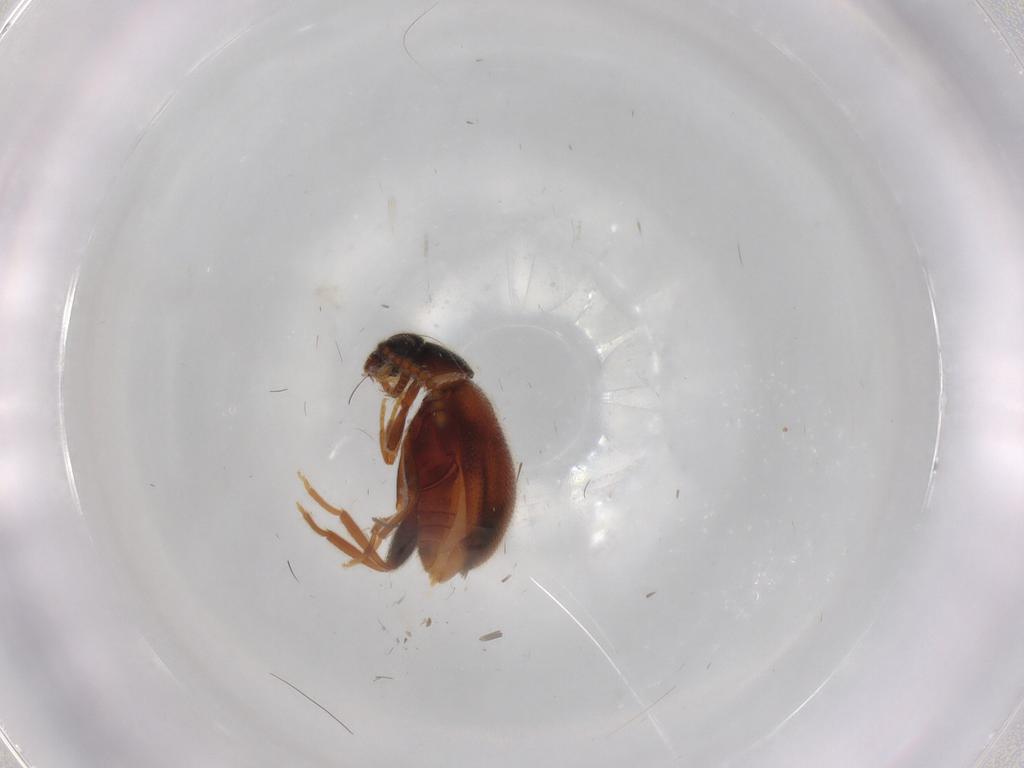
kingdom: Animalia
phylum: Arthropoda
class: Insecta
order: Coleoptera
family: Aderidae
